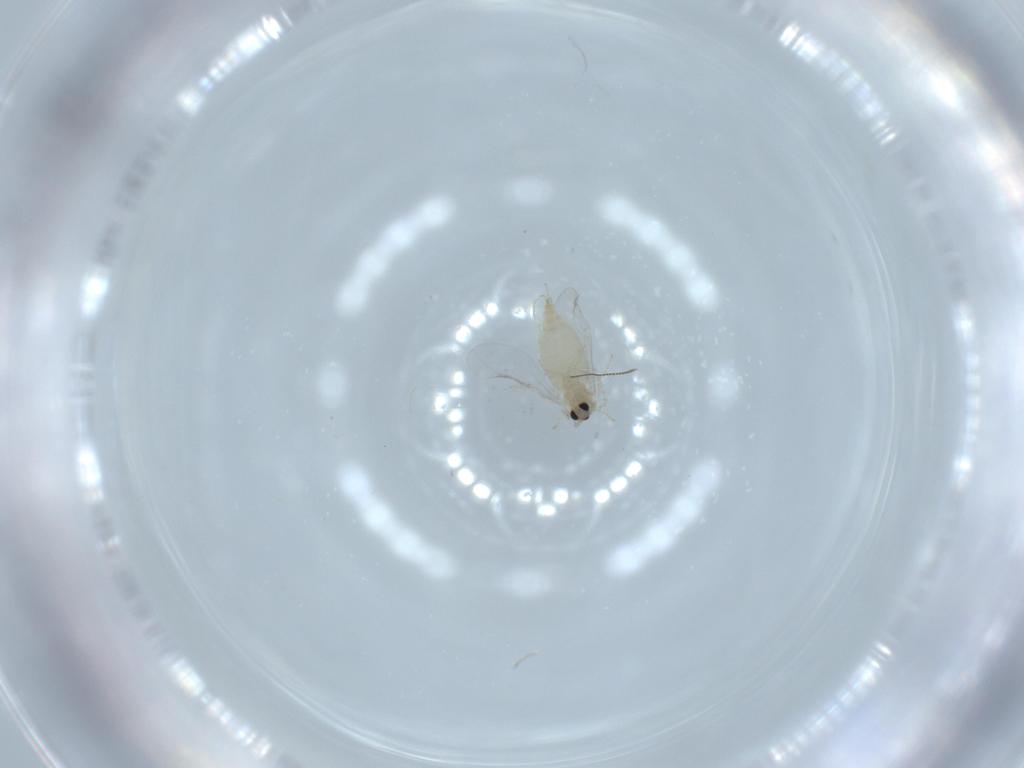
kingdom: Animalia
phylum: Arthropoda
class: Insecta
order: Diptera
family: Cecidomyiidae
